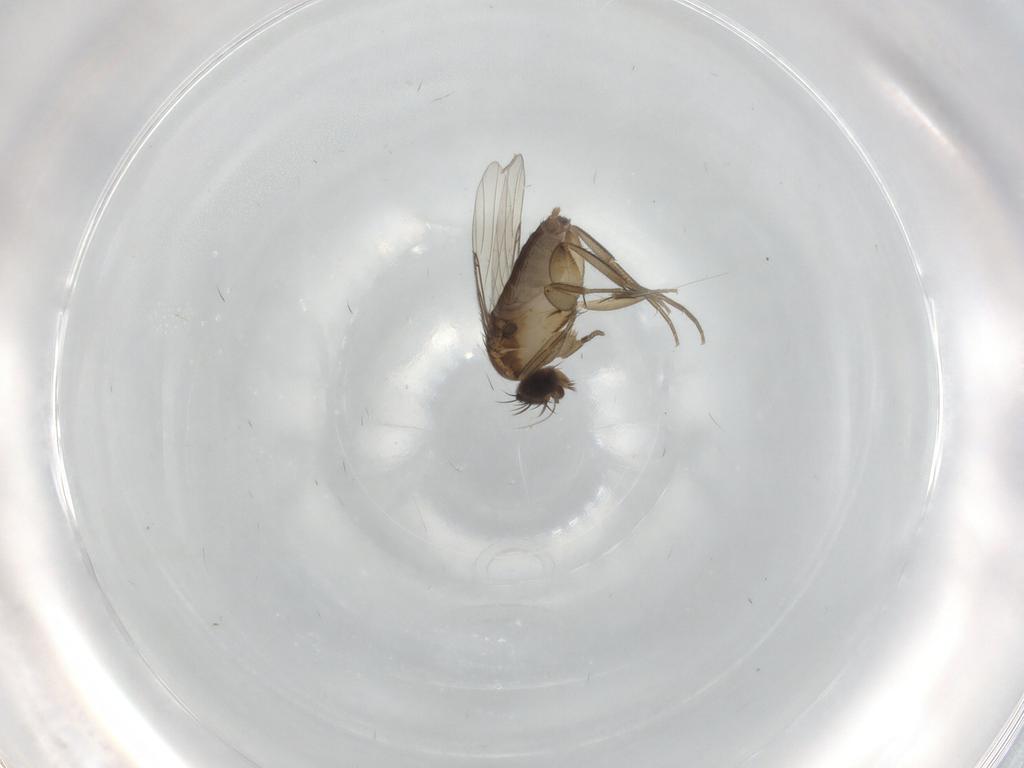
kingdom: Animalia
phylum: Arthropoda
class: Insecta
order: Diptera
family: Phoridae
